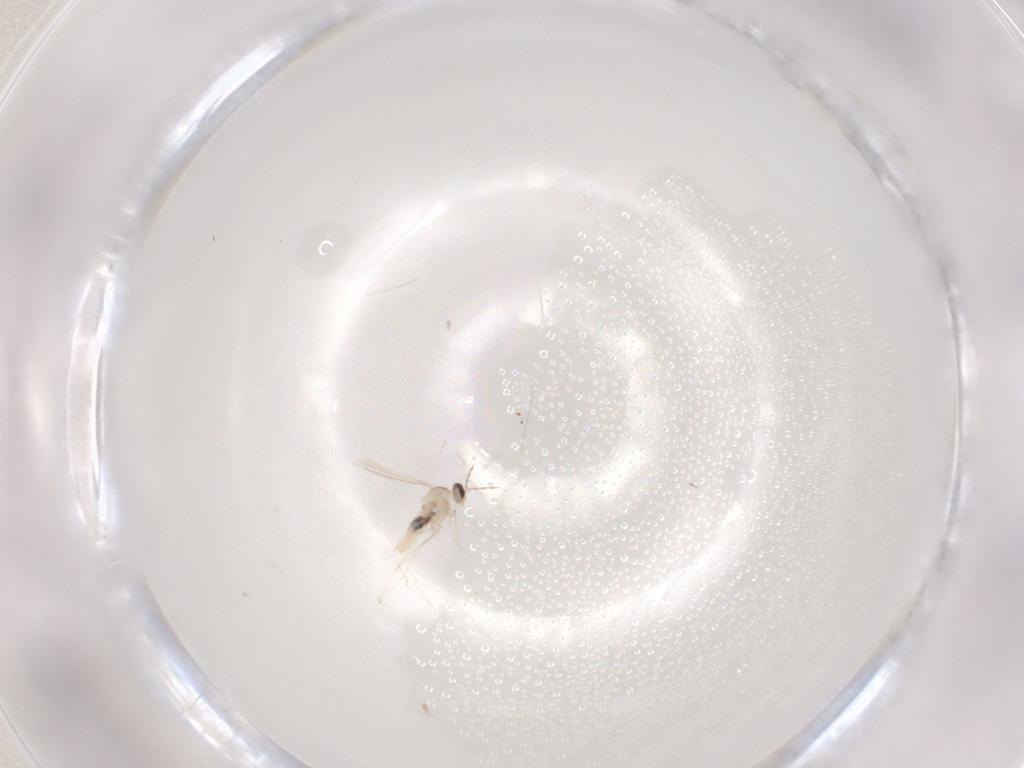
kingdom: Animalia
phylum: Arthropoda
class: Insecta
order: Diptera
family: Cecidomyiidae
